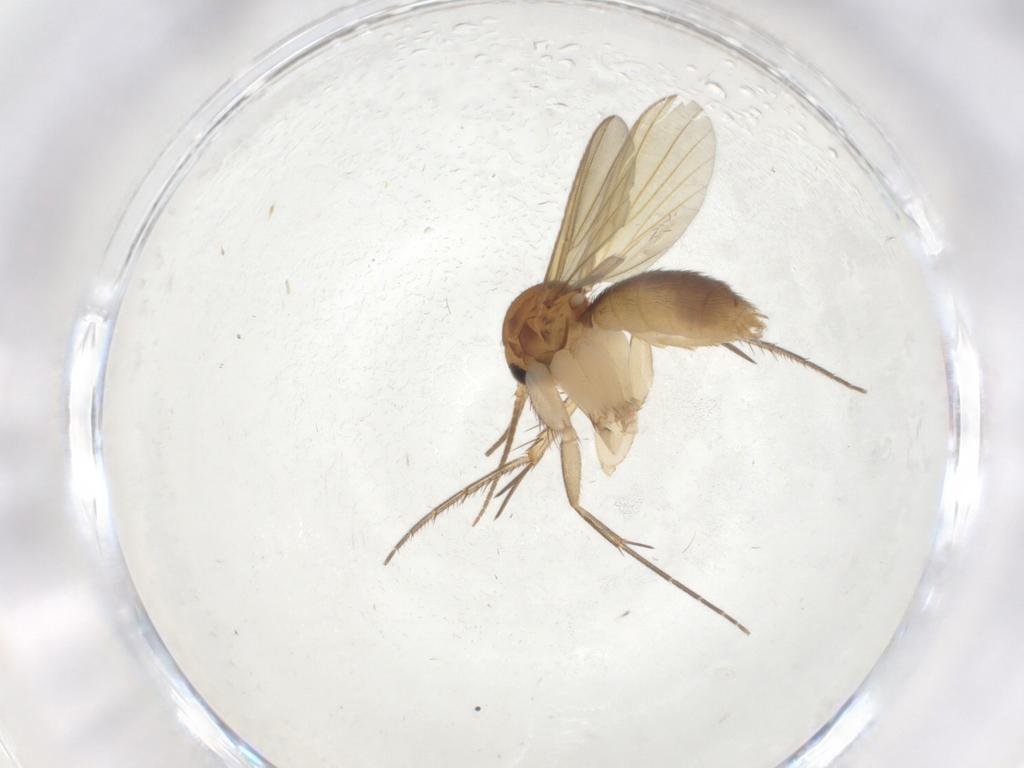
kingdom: Animalia
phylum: Arthropoda
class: Insecta
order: Diptera
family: Mycetophilidae
